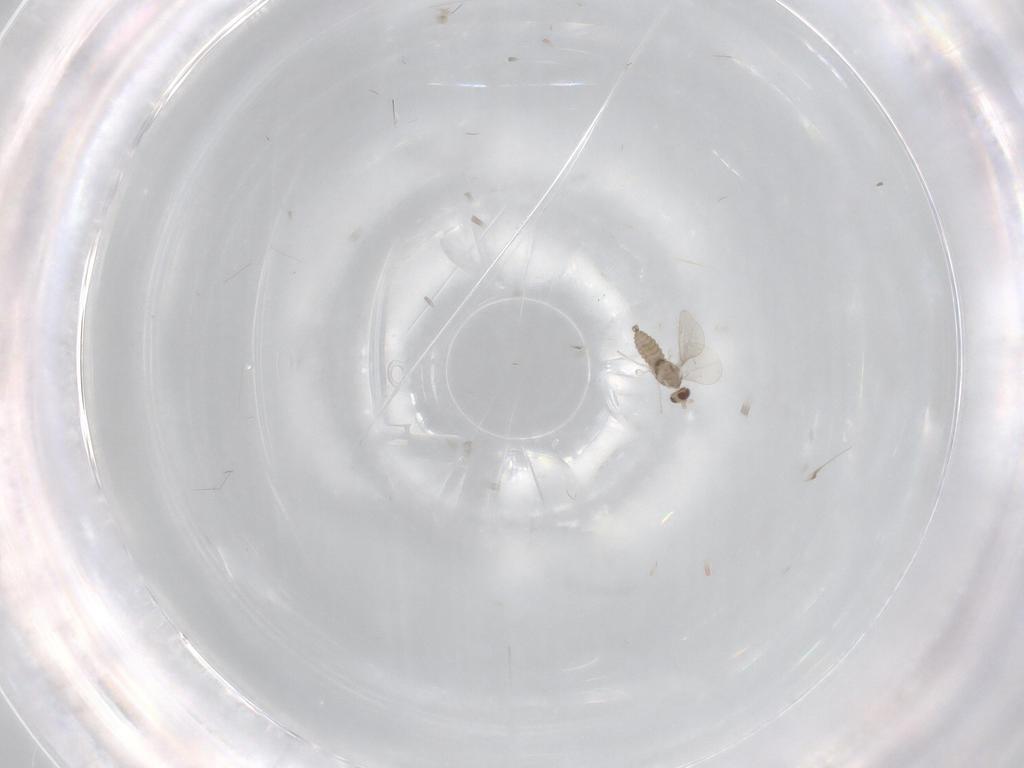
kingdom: Animalia
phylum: Arthropoda
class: Insecta
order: Diptera
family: Cecidomyiidae
